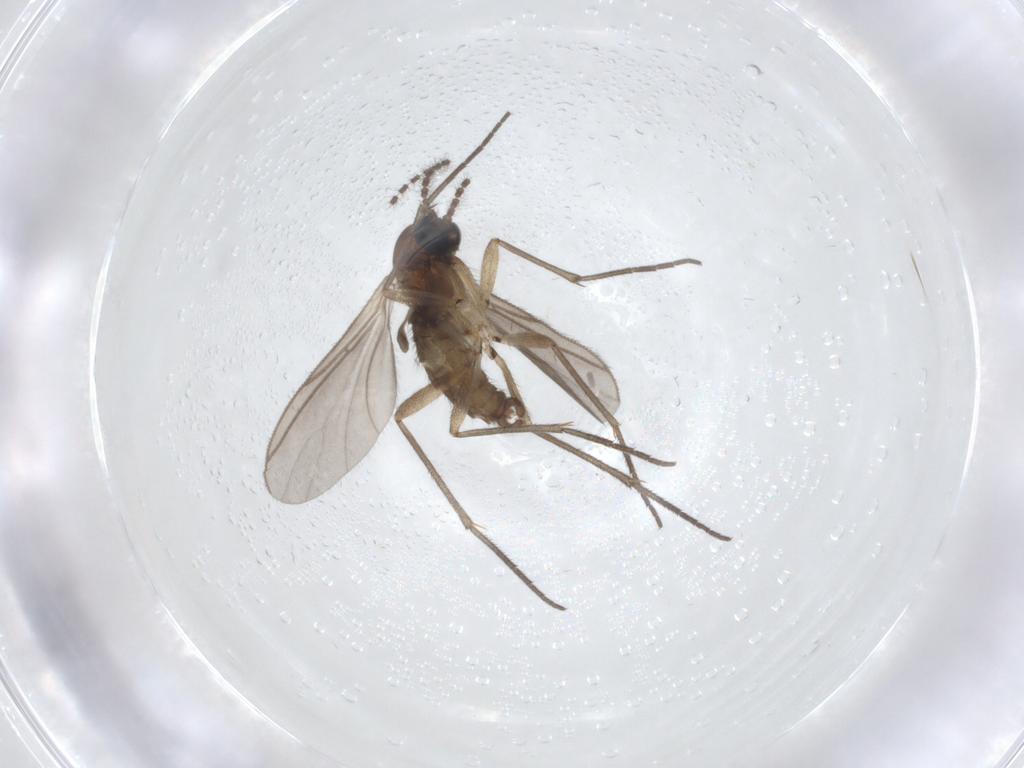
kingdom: Animalia
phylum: Arthropoda
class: Insecta
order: Diptera
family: Sciaridae
